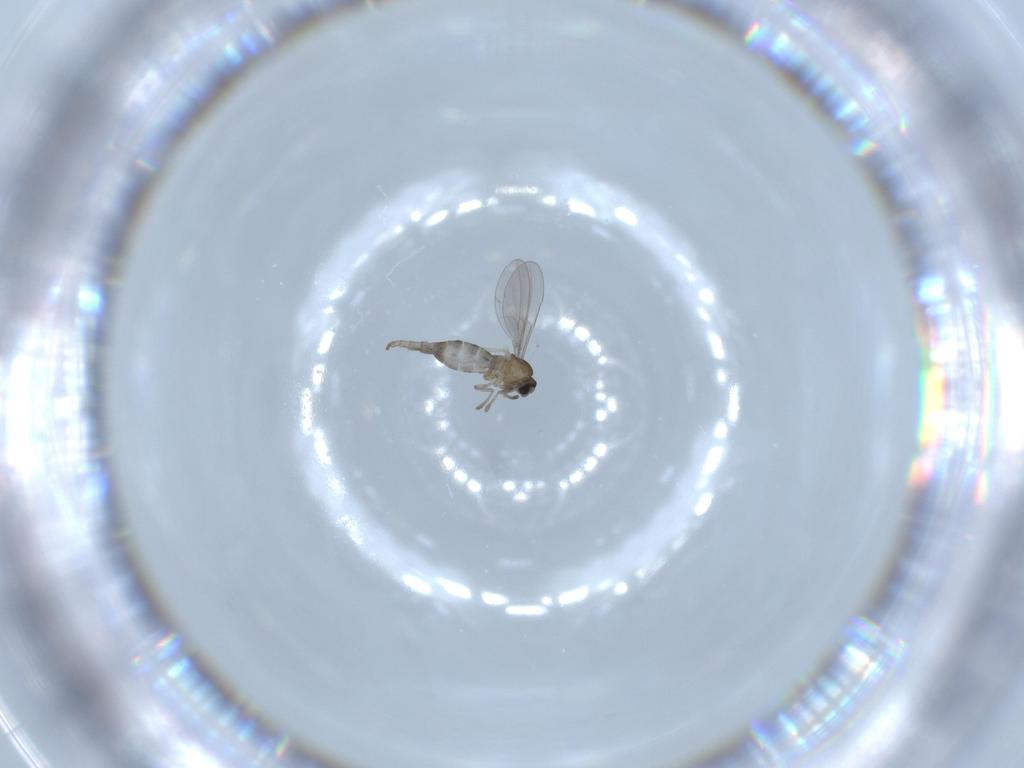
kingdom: Animalia
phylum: Arthropoda
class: Insecta
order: Diptera
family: Cecidomyiidae
